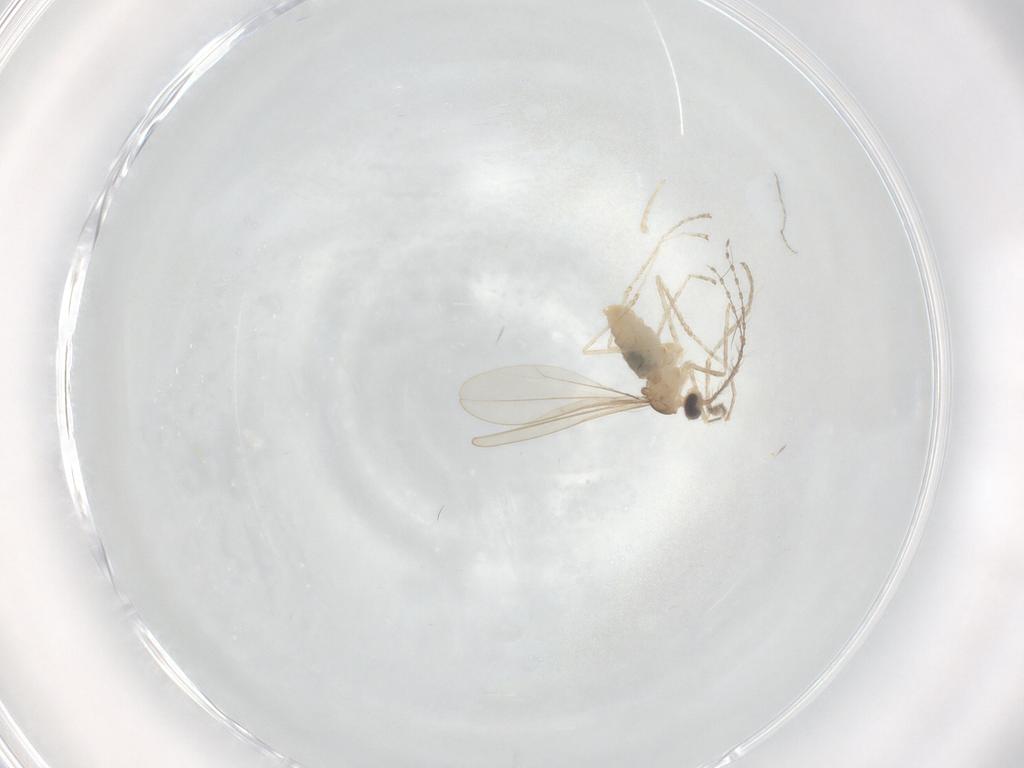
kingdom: Animalia
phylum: Arthropoda
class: Insecta
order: Diptera
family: Cecidomyiidae
